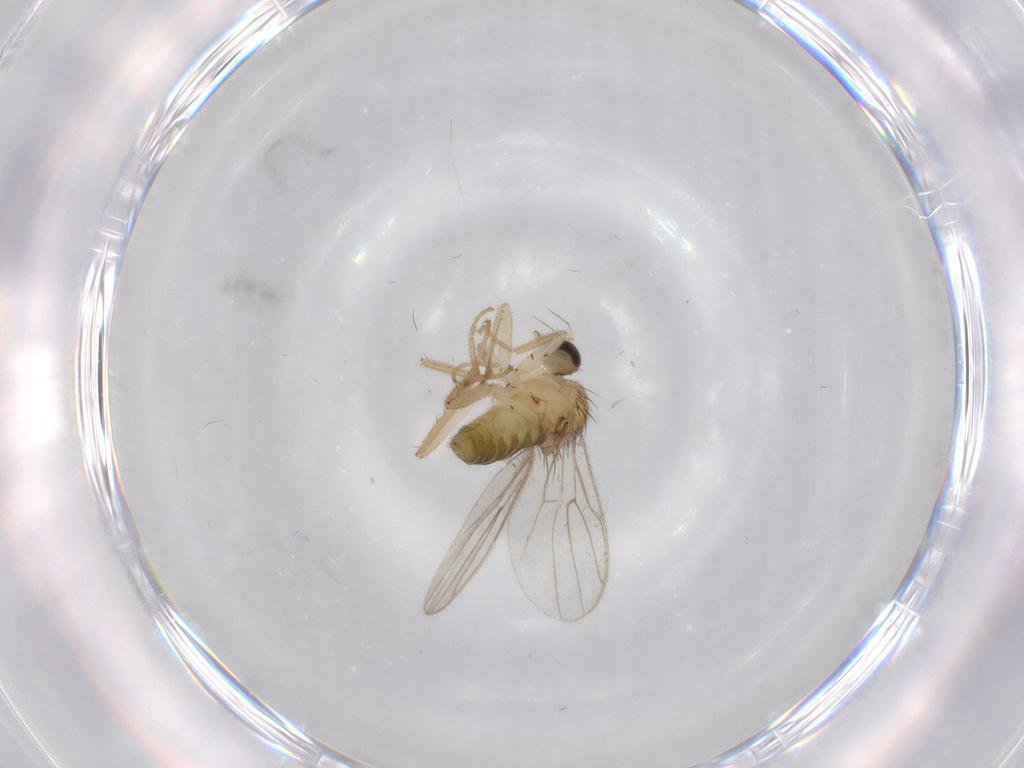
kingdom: Animalia
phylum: Arthropoda
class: Insecta
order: Diptera
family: Hybotidae
